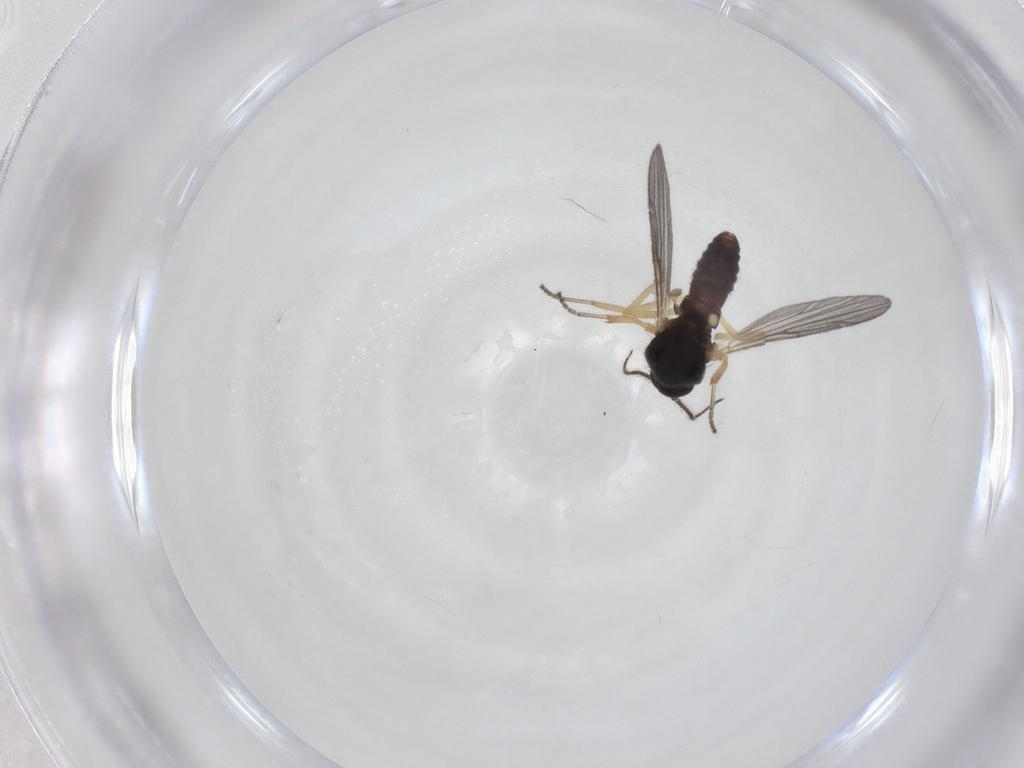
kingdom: Animalia
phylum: Arthropoda
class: Insecta
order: Diptera
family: Ceratopogonidae
